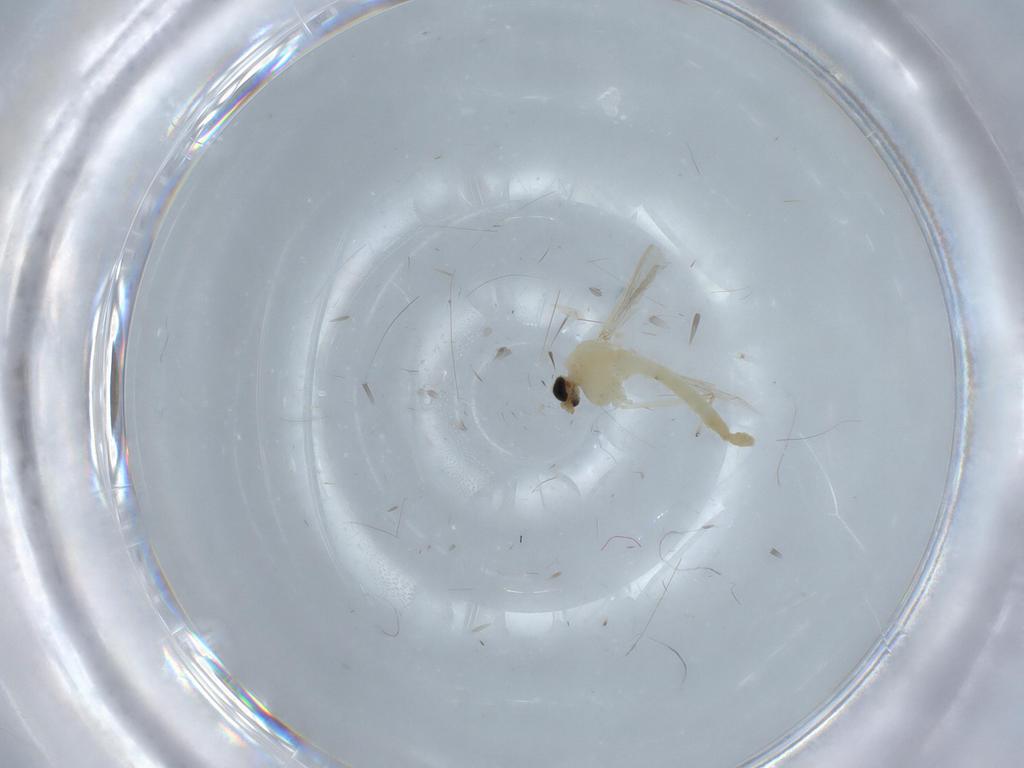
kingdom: Animalia
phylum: Arthropoda
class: Insecta
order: Diptera
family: Chironomidae
